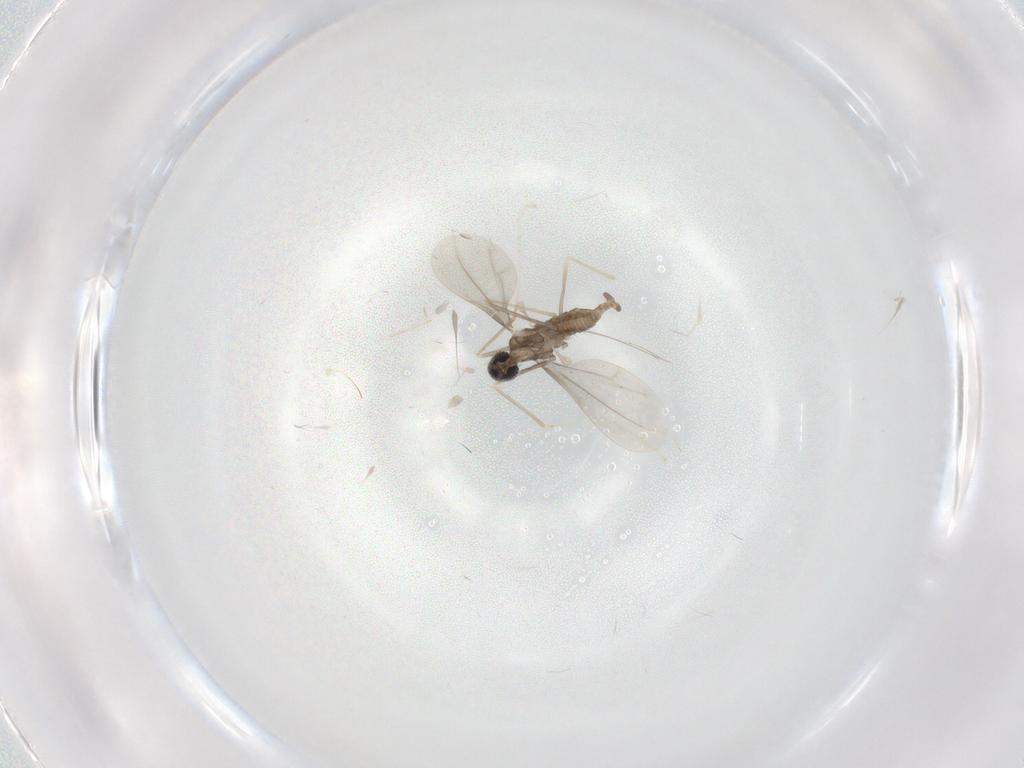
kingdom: Animalia
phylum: Arthropoda
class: Insecta
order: Diptera
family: Cecidomyiidae
